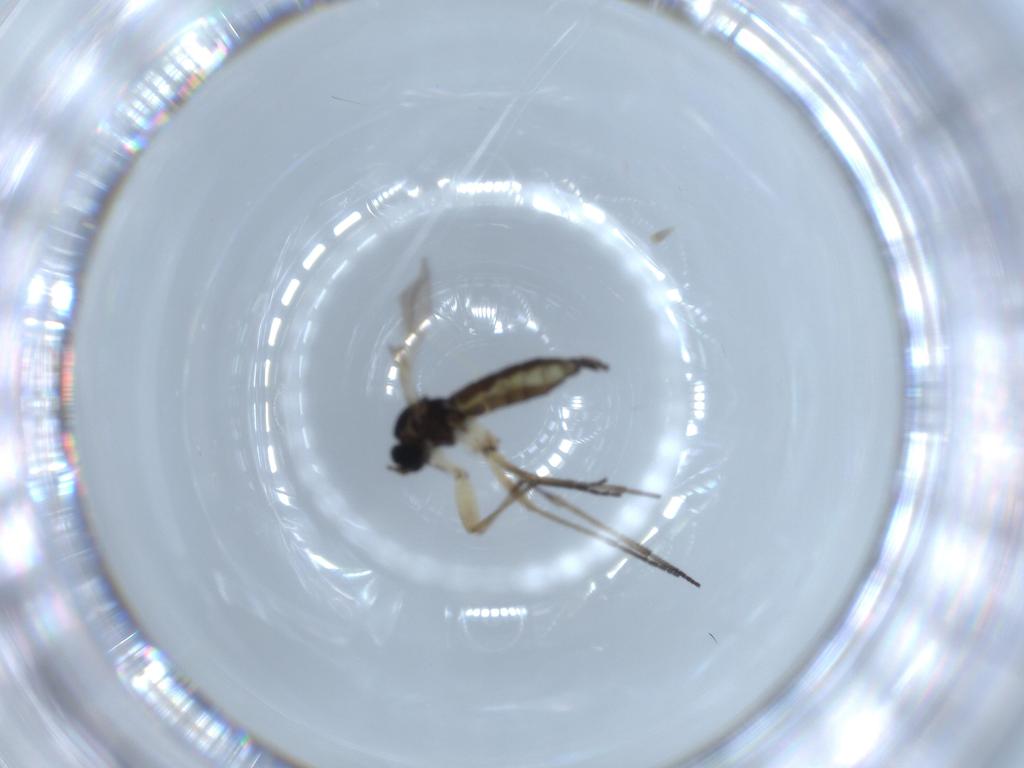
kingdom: Animalia
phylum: Arthropoda
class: Insecta
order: Diptera
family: Sciaridae
